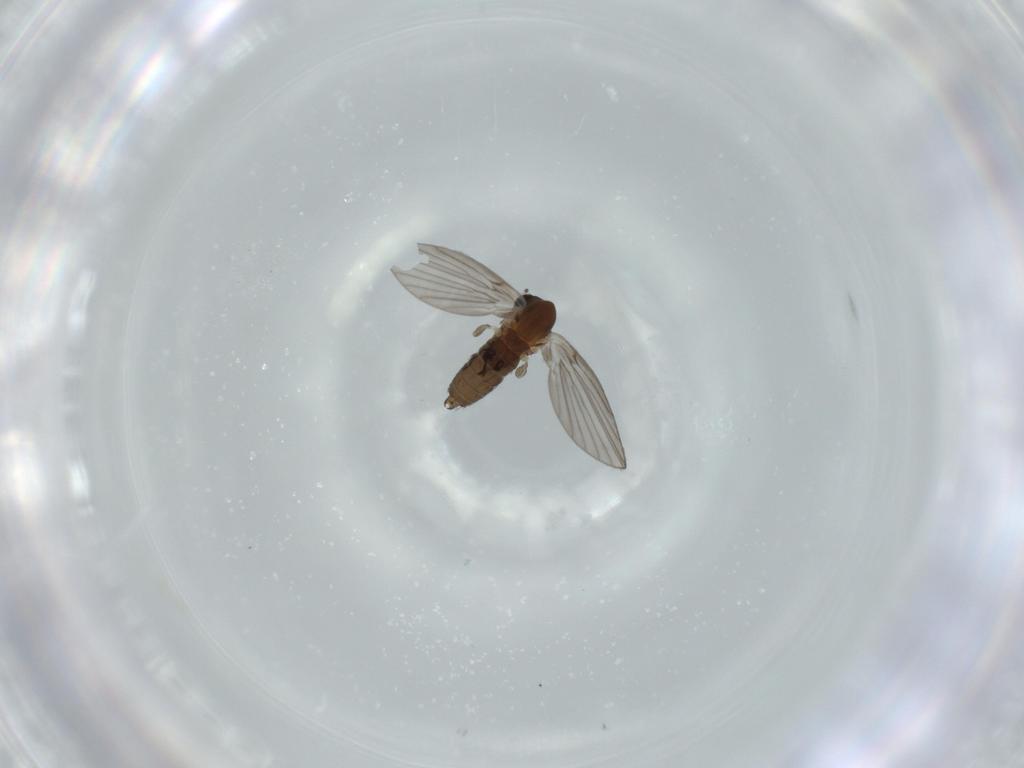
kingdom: Animalia
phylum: Arthropoda
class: Insecta
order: Diptera
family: Psychodidae
